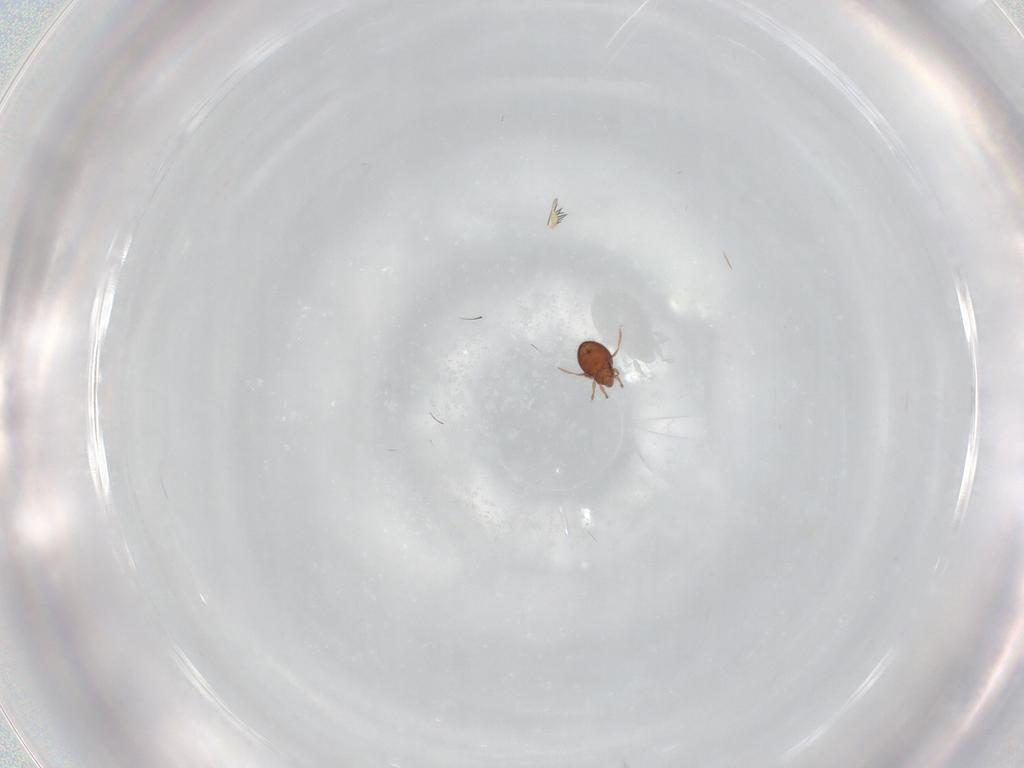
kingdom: Animalia
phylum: Arthropoda
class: Arachnida
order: Sarcoptiformes
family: Oribatulidae
